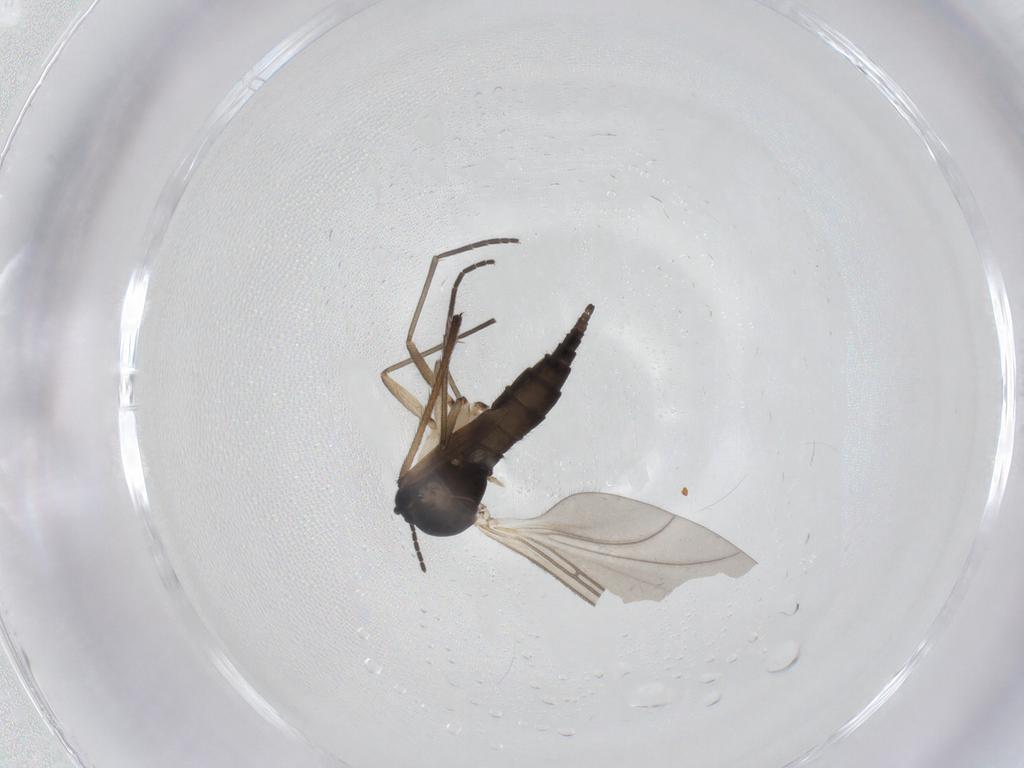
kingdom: Animalia
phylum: Arthropoda
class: Insecta
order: Diptera
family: Sciaridae
